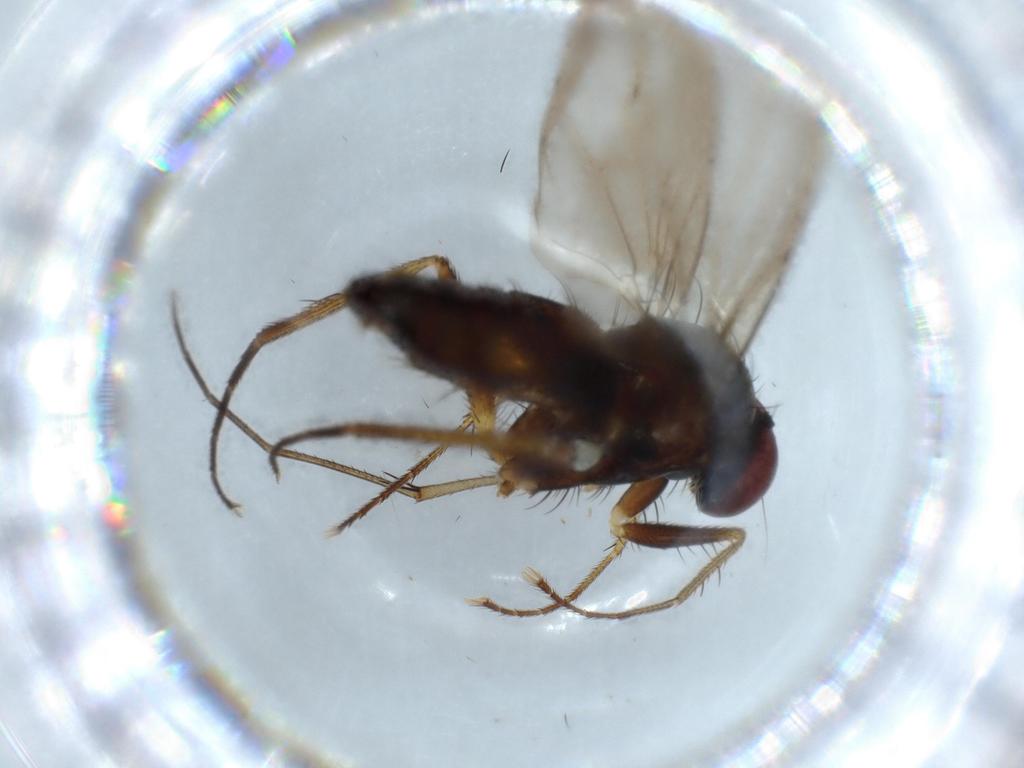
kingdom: Animalia
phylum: Arthropoda
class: Insecta
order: Diptera
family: Dolichopodidae
